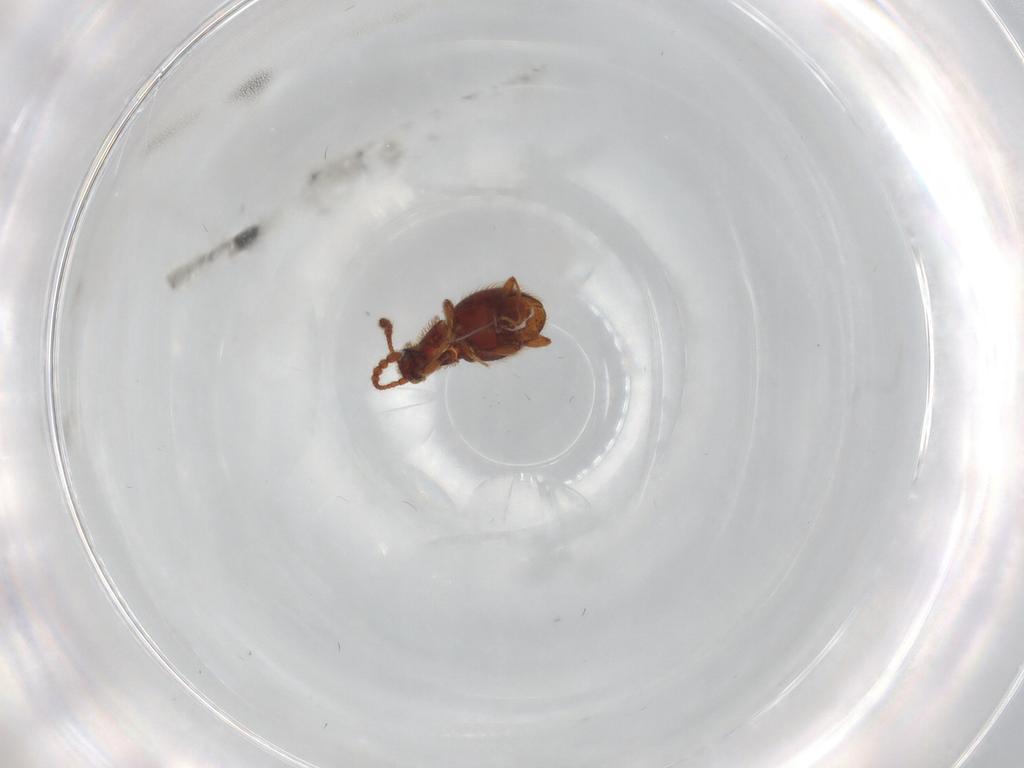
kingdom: Animalia
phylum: Arthropoda
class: Insecta
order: Coleoptera
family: Staphylinidae
